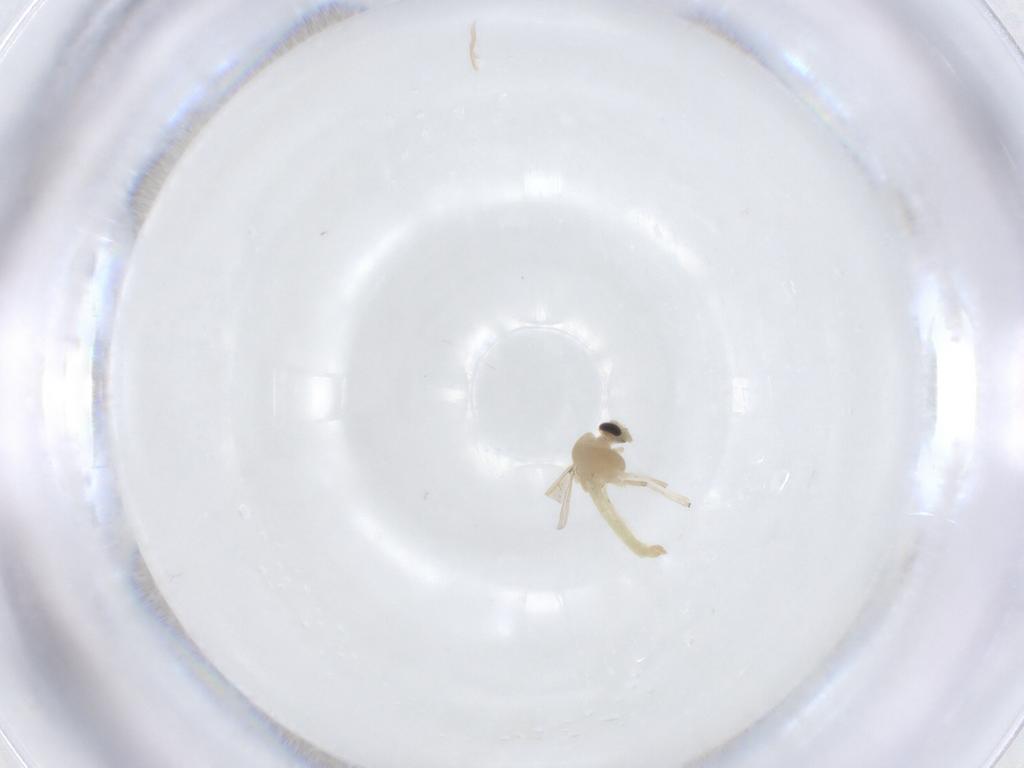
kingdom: Animalia
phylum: Arthropoda
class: Insecta
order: Diptera
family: Chironomidae
